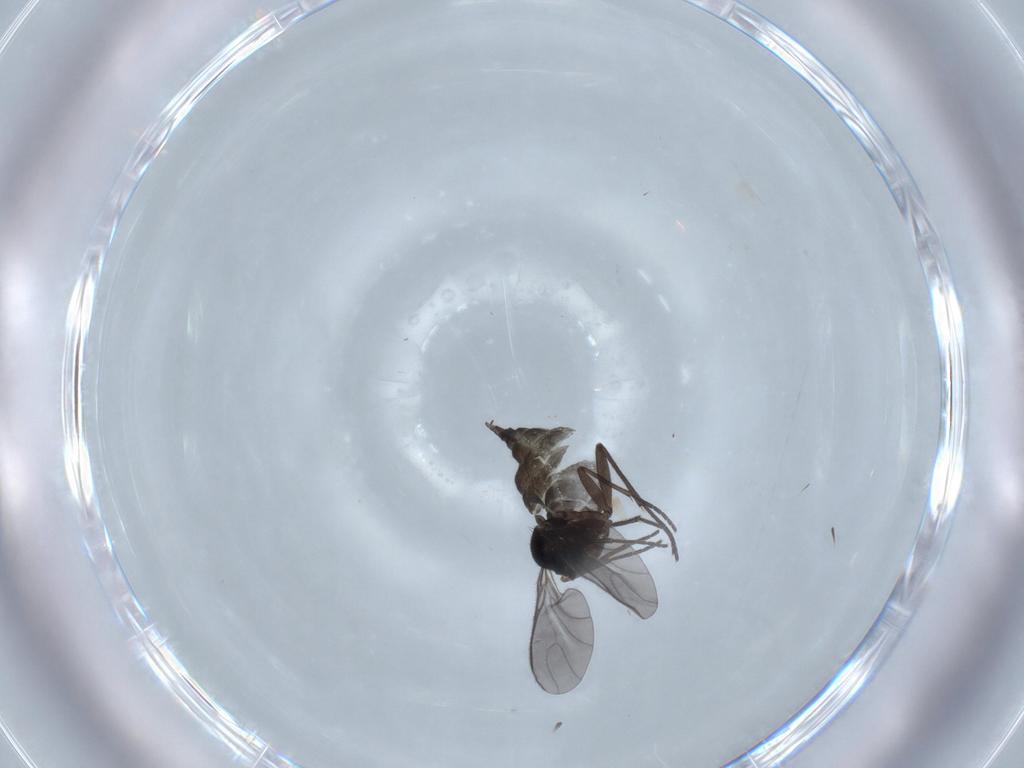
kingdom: Animalia
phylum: Arthropoda
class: Insecta
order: Diptera
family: Sciaridae
